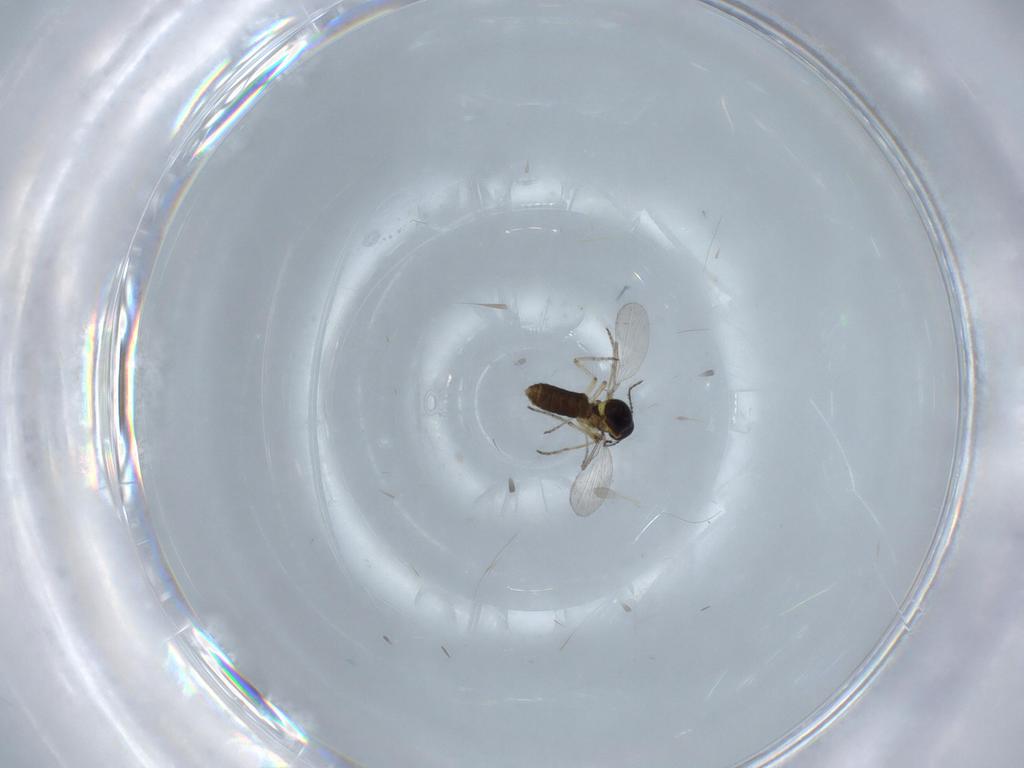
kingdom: Animalia
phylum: Arthropoda
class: Insecta
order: Diptera
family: Ceratopogonidae
